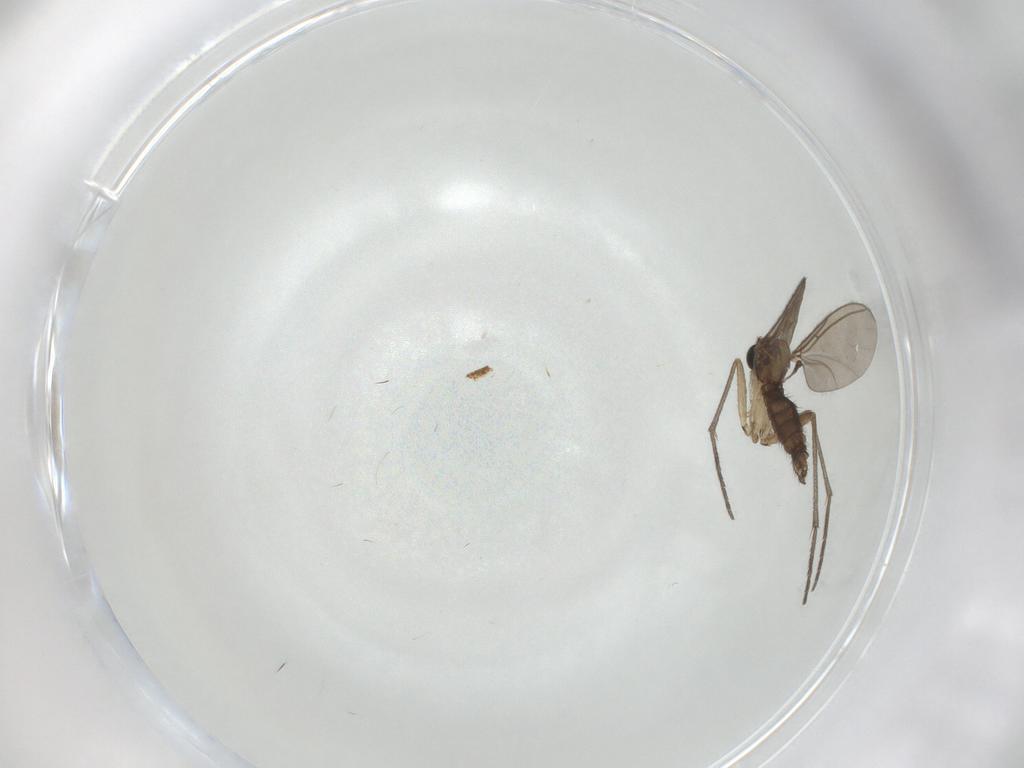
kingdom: Animalia
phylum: Arthropoda
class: Insecta
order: Diptera
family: Sciaridae
